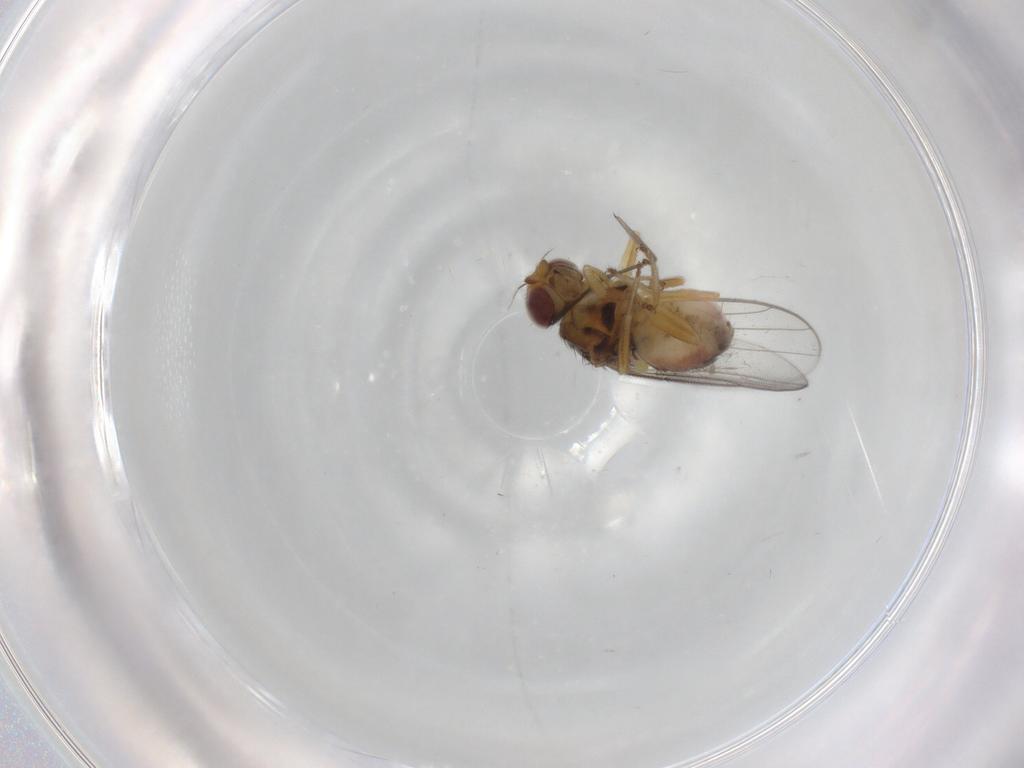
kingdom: Animalia
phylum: Arthropoda
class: Insecta
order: Diptera
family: Chloropidae
